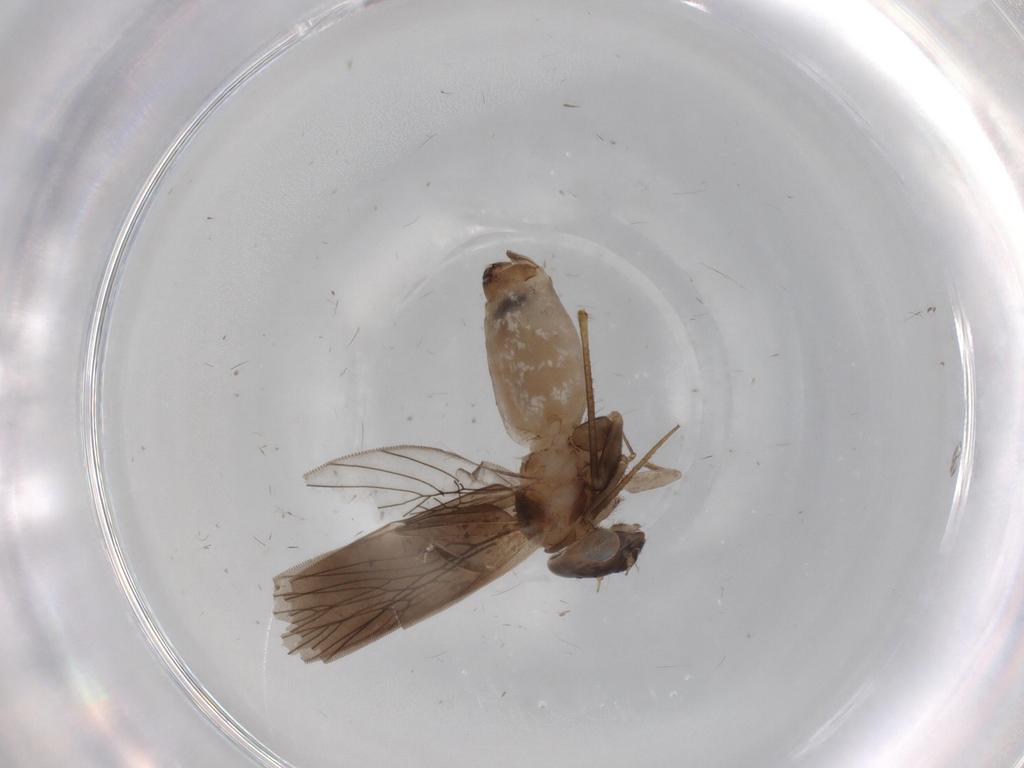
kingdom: Animalia
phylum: Arthropoda
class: Insecta
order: Psocodea
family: Lepidopsocidae
